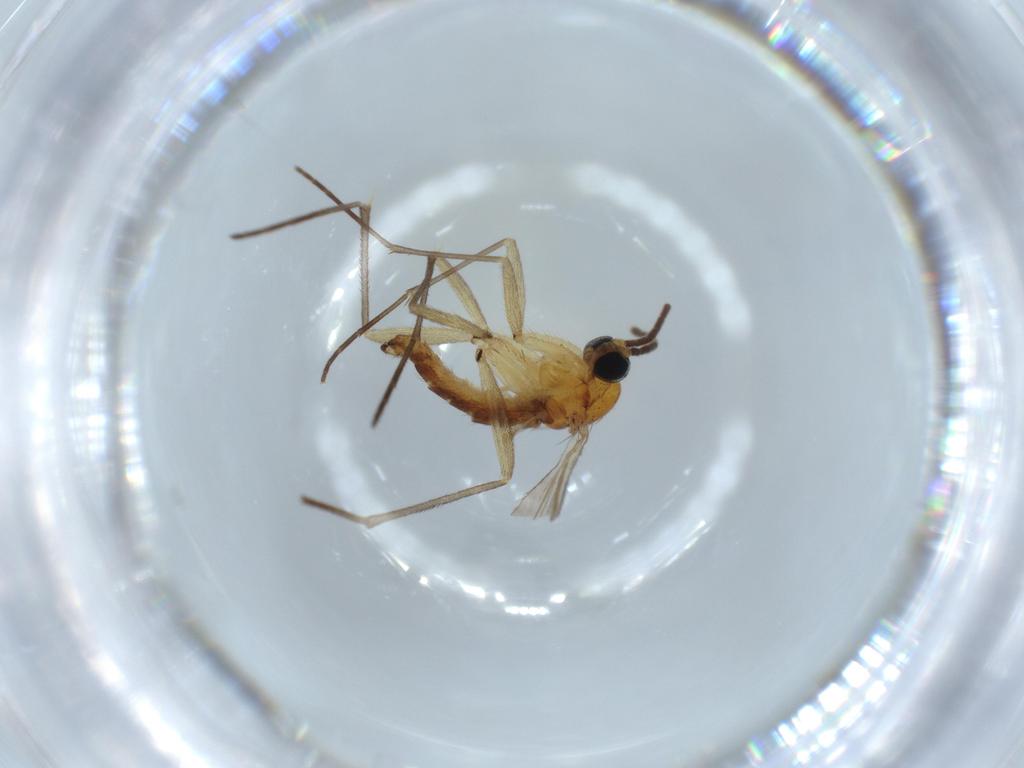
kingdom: Animalia
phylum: Arthropoda
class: Insecta
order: Diptera
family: Sciaridae
